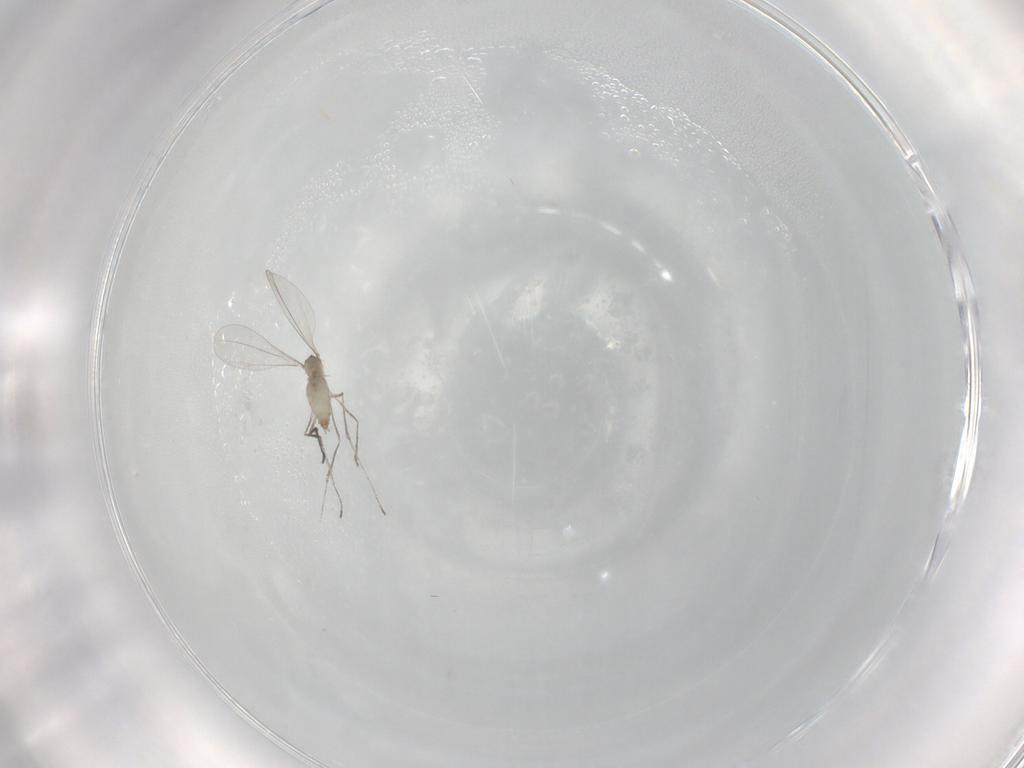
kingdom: Animalia
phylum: Arthropoda
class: Insecta
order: Diptera
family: Cecidomyiidae
